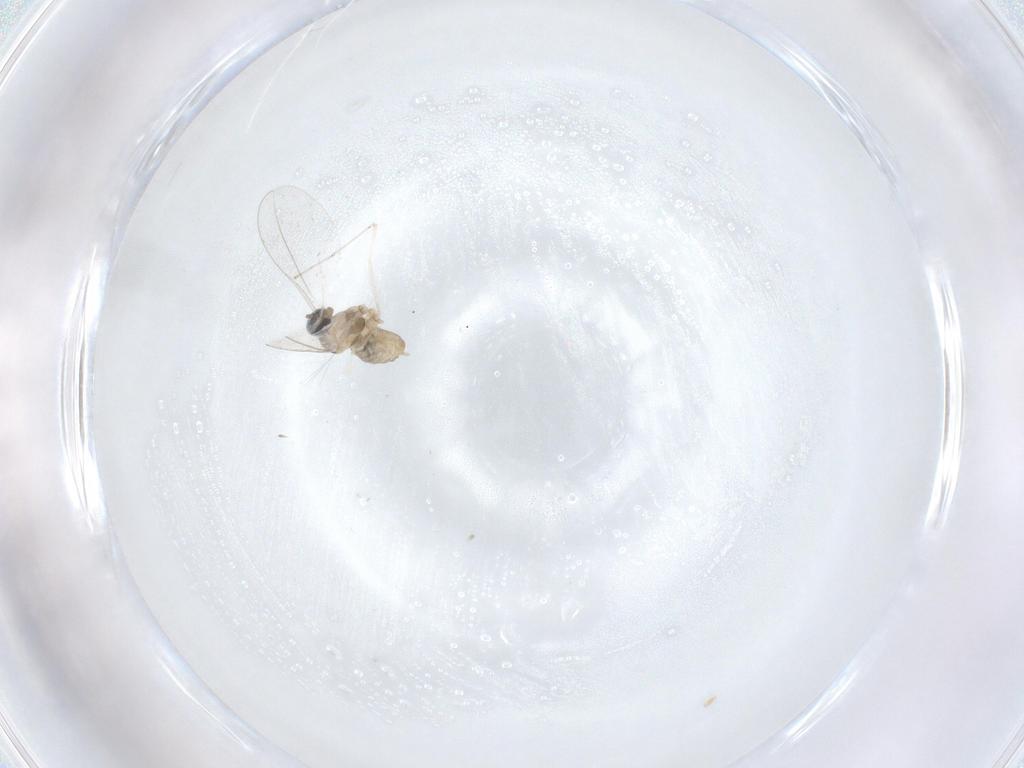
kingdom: Animalia
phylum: Arthropoda
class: Insecta
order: Diptera
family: Cecidomyiidae
